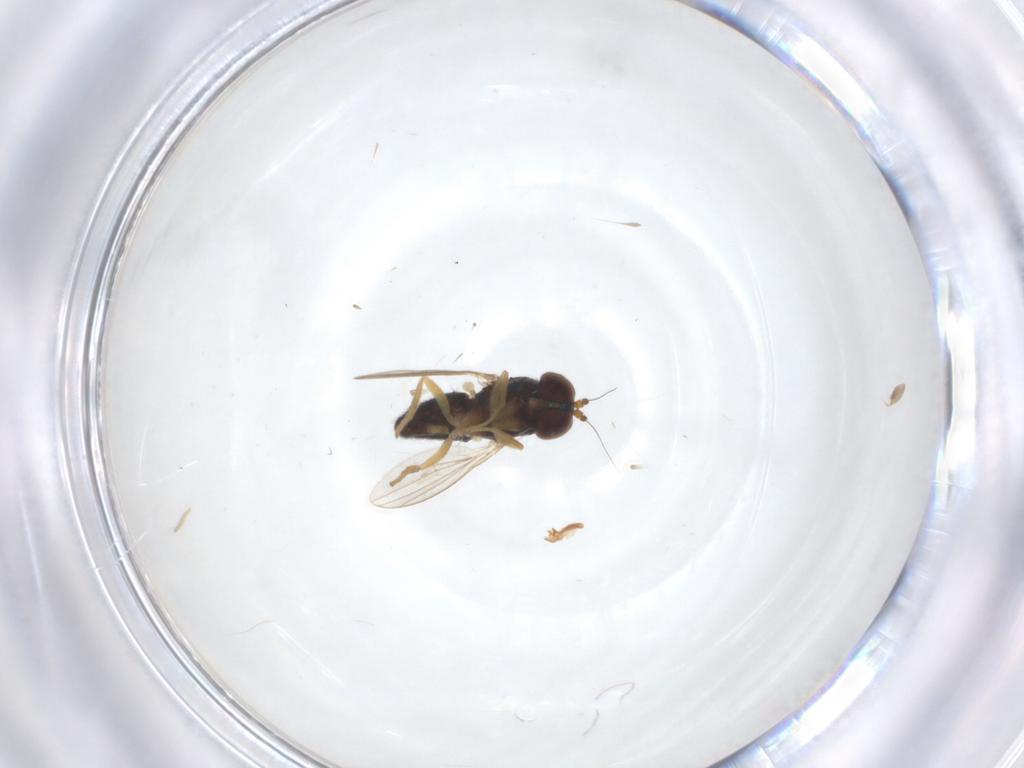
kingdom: Animalia
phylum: Arthropoda
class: Insecta
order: Diptera
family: Dolichopodidae
